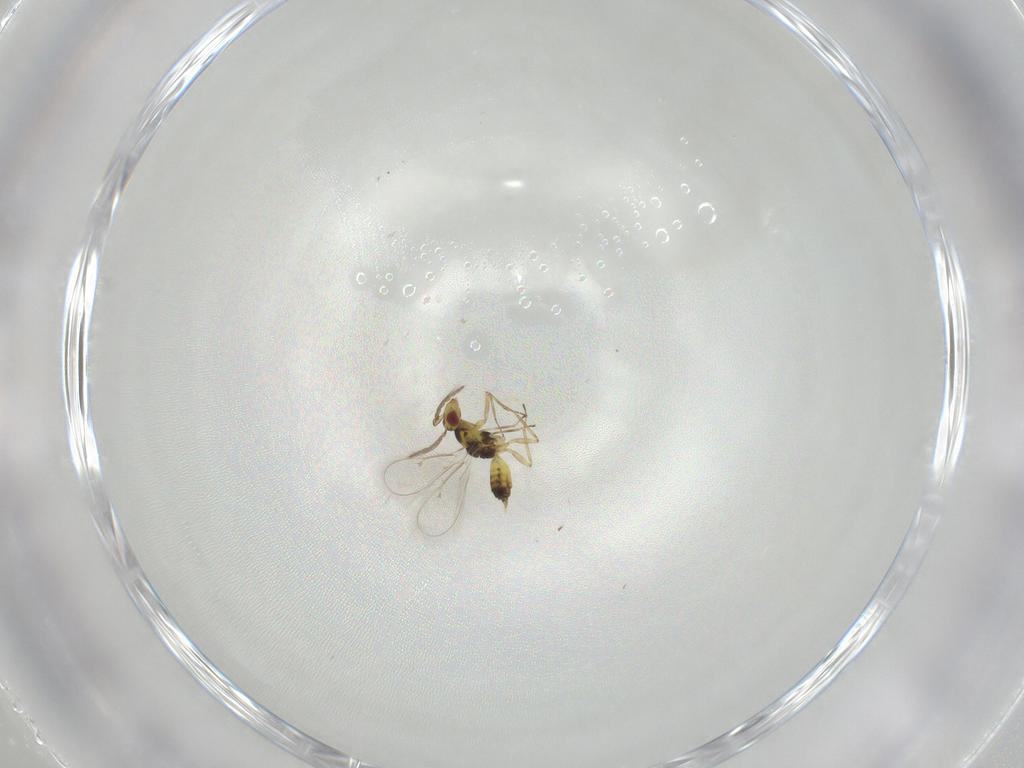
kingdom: Animalia
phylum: Arthropoda
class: Insecta
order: Hymenoptera
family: Eulophidae
